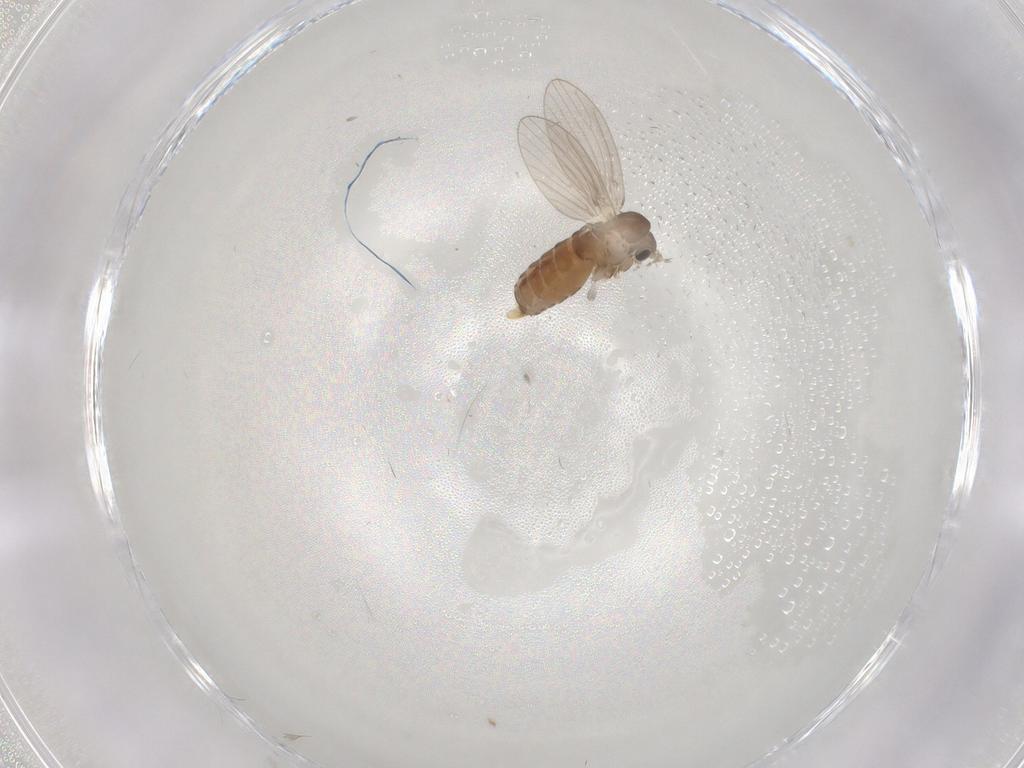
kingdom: Animalia
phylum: Arthropoda
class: Insecta
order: Diptera
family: Psychodidae
